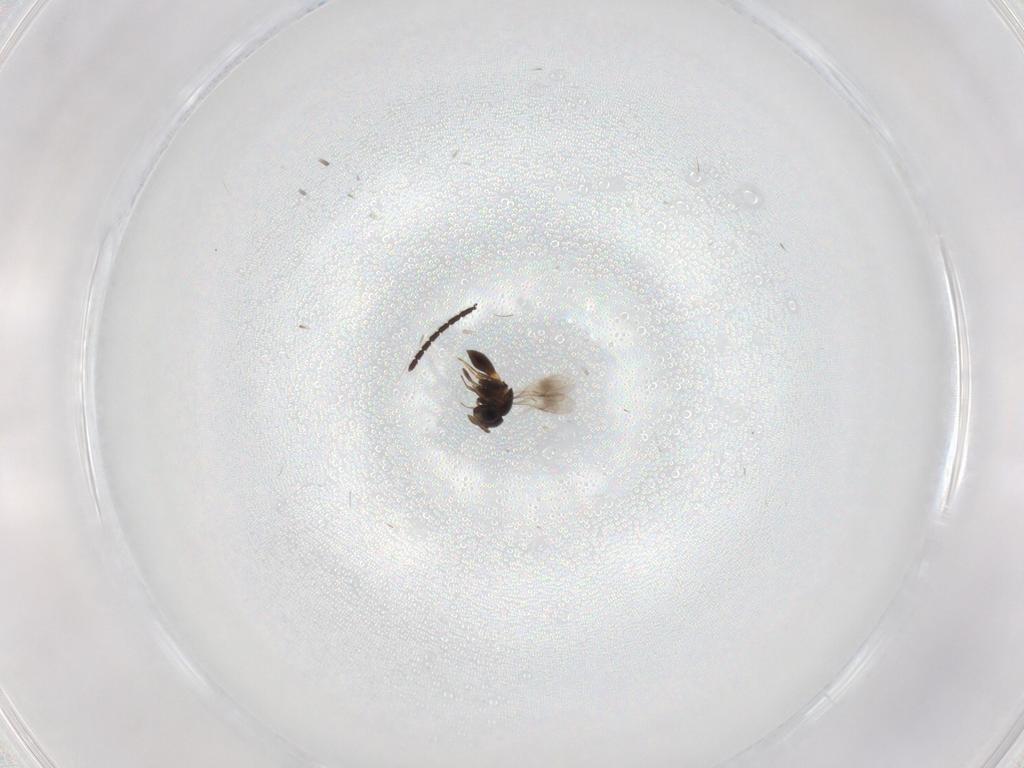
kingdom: Animalia
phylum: Arthropoda
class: Insecta
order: Hymenoptera
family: Scelionidae
